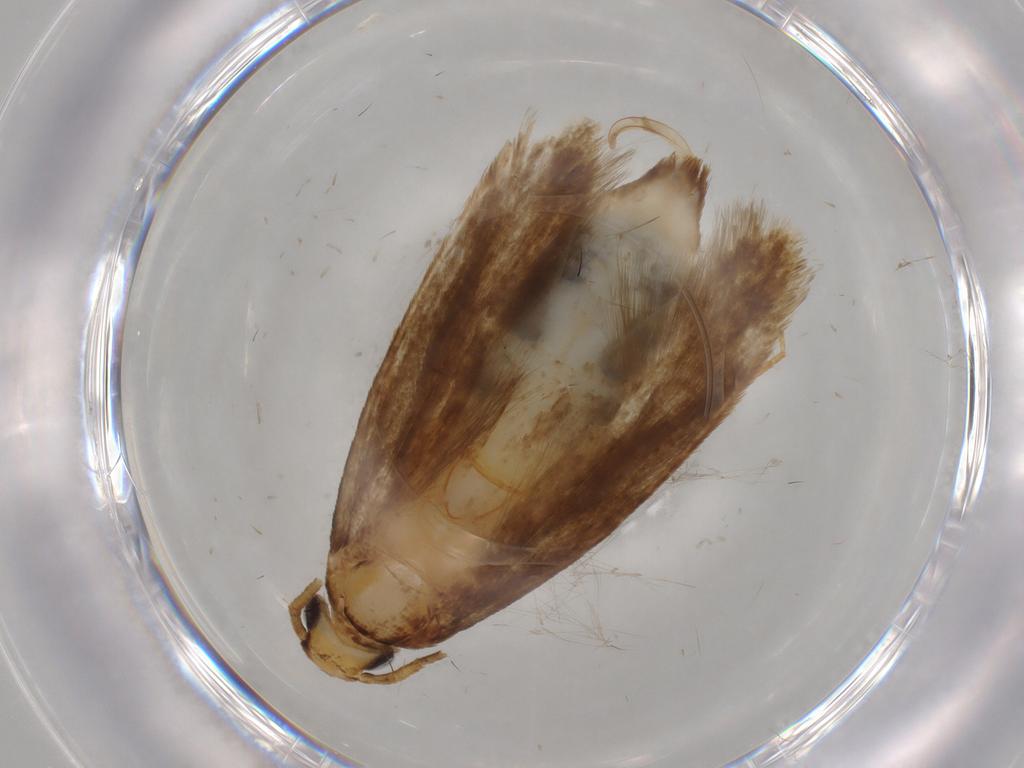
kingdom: Animalia
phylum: Arthropoda
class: Insecta
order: Lepidoptera
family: Tineidae
